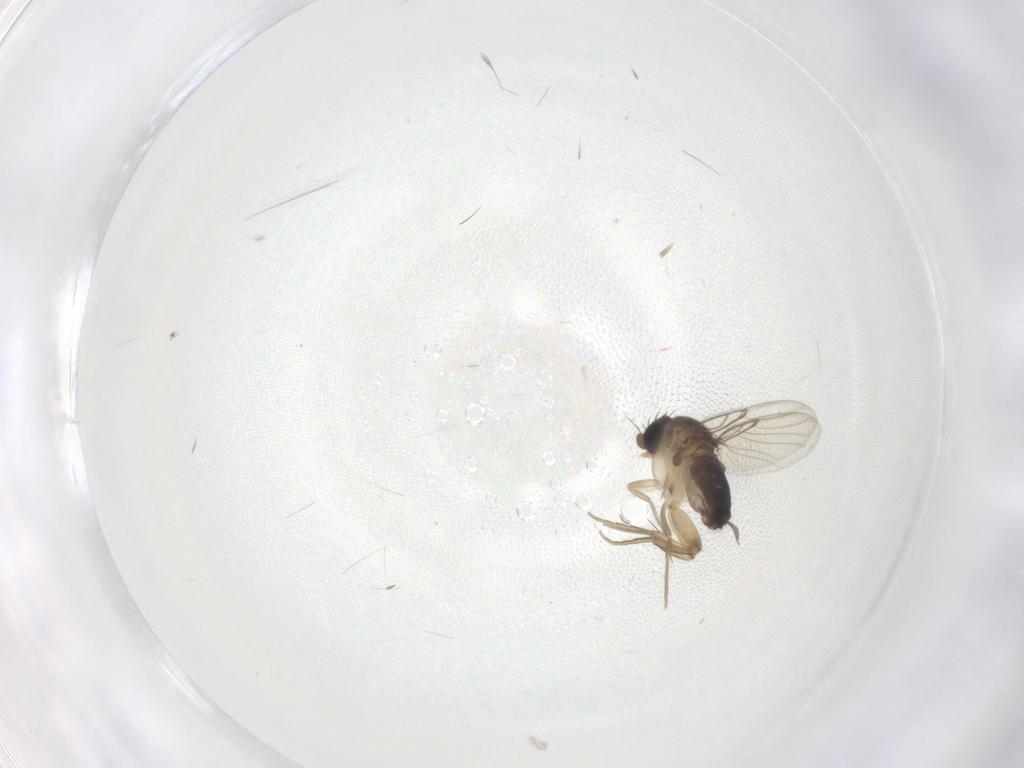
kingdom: Animalia
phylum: Arthropoda
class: Insecta
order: Diptera
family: Phoridae
